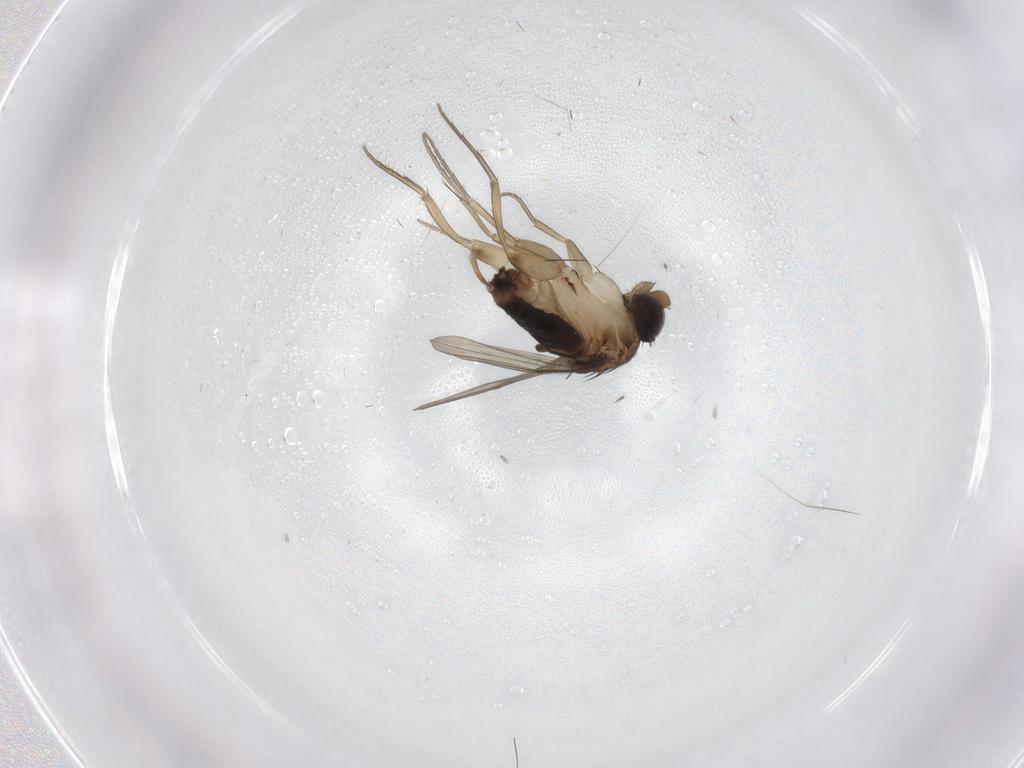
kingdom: Animalia
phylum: Arthropoda
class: Insecta
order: Diptera
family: Phoridae
